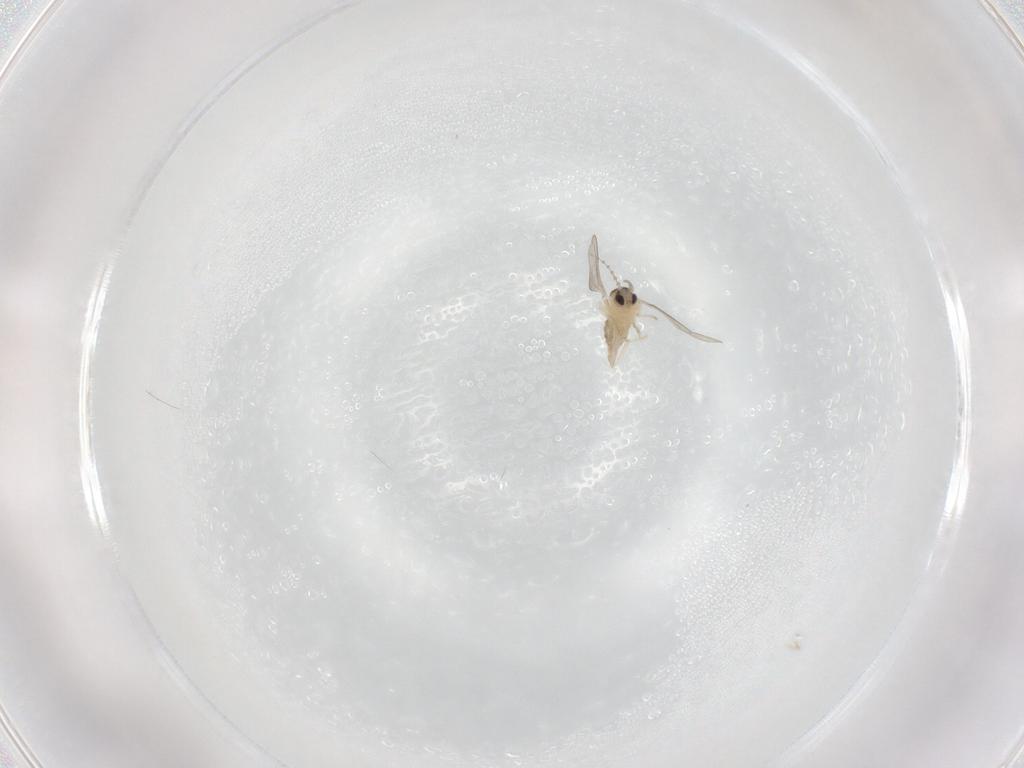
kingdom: Animalia
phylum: Arthropoda
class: Insecta
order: Diptera
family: Cecidomyiidae
